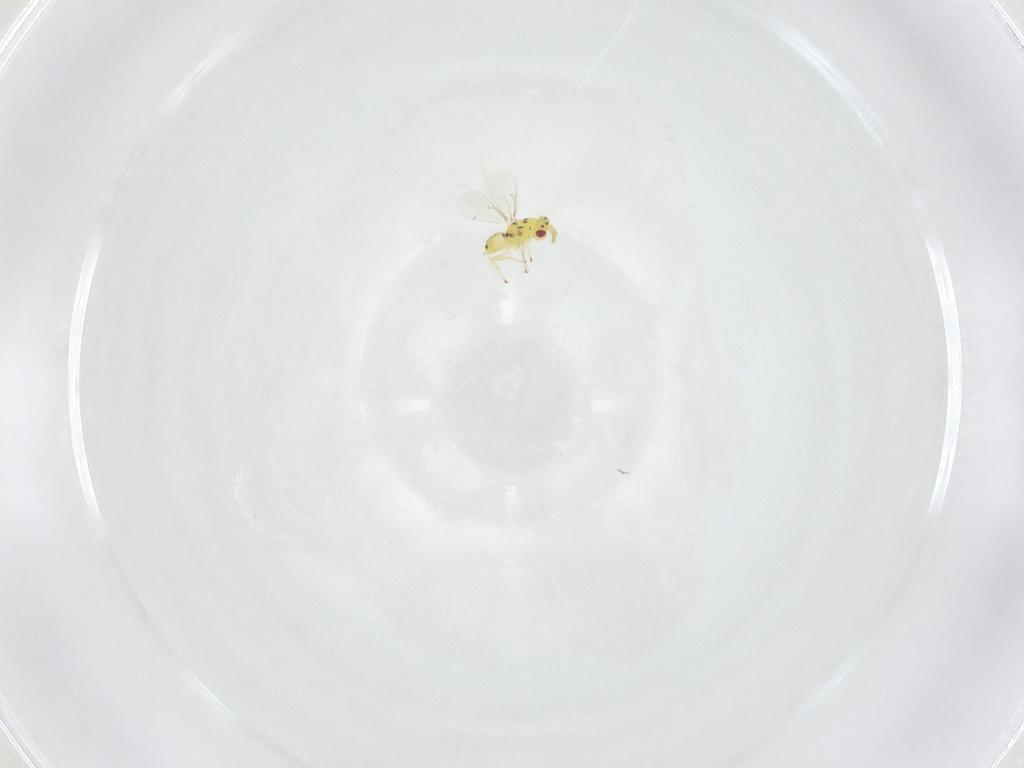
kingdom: Animalia
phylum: Arthropoda
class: Insecta
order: Hymenoptera
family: Eulophidae
